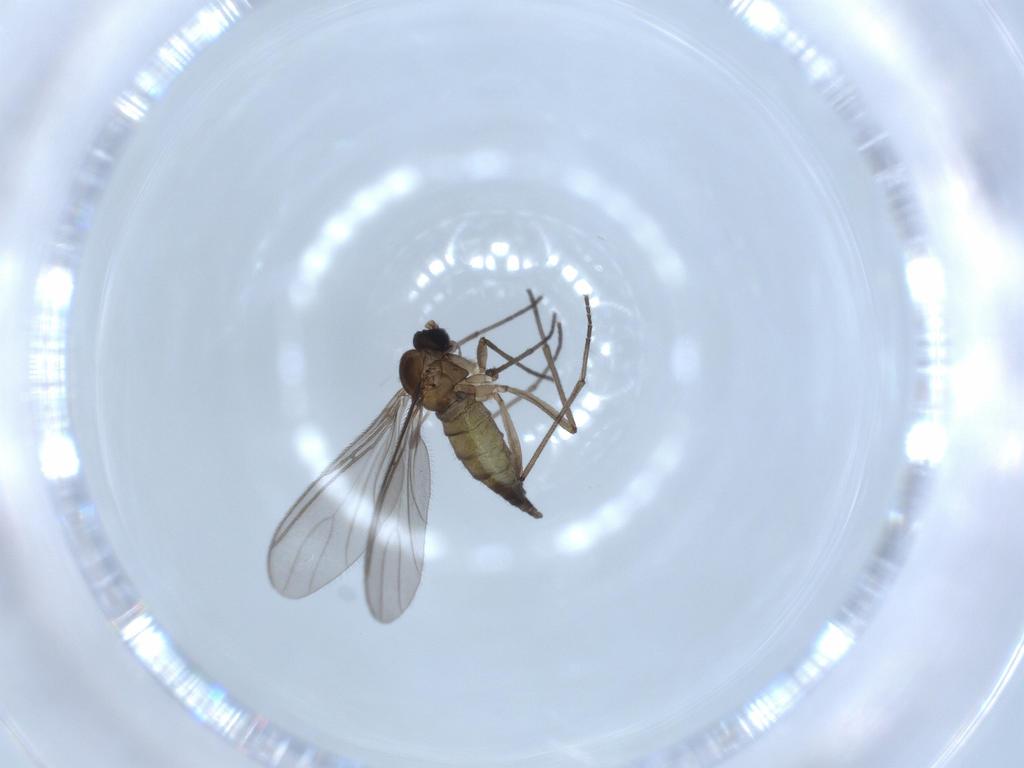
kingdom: Animalia
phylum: Arthropoda
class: Insecta
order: Diptera
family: Sciaridae
